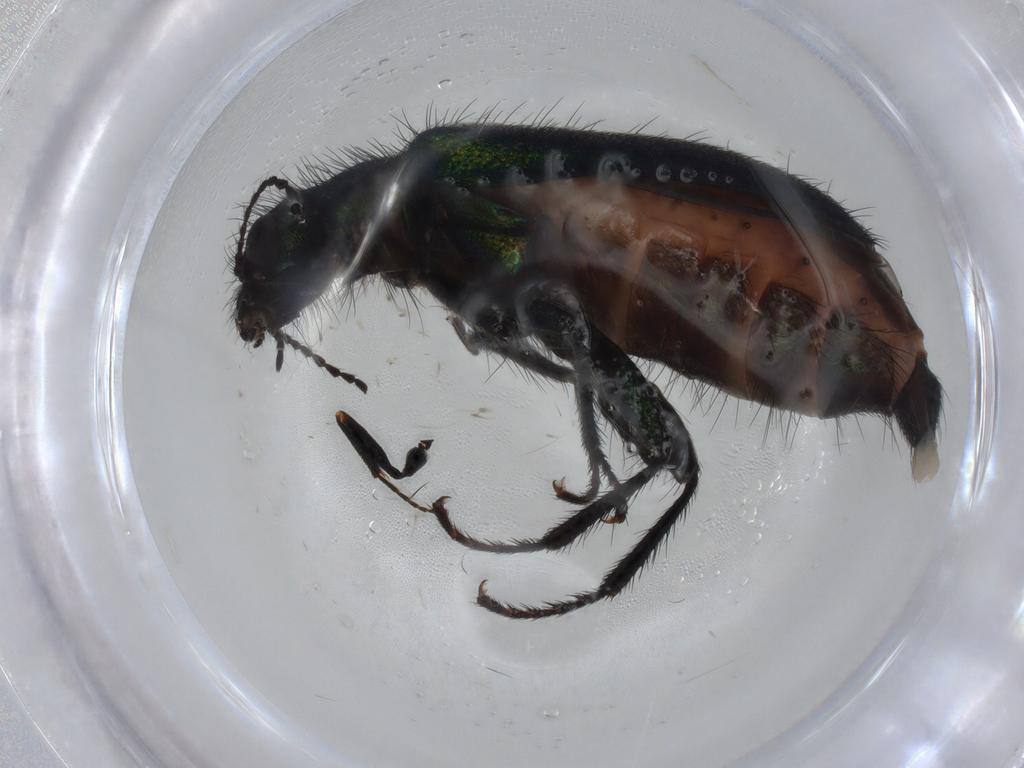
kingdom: Animalia
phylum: Arthropoda
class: Insecta
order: Coleoptera
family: Melyridae
